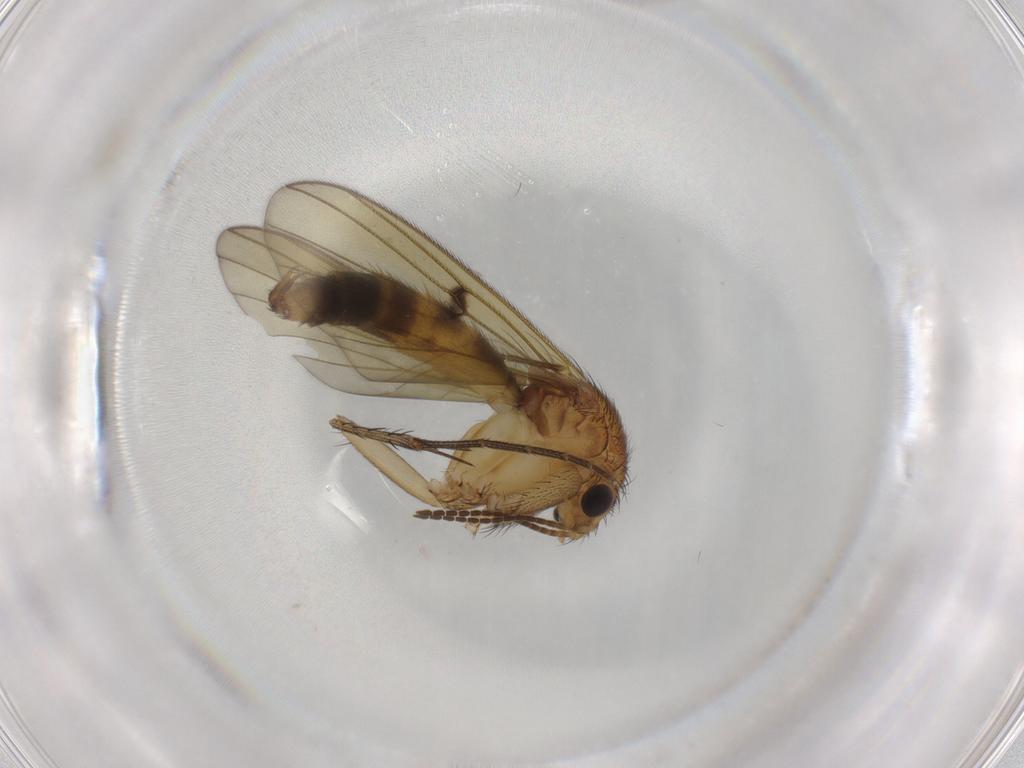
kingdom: Animalia
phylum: Arthropoda
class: Insecta
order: Diptera
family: Sphaeroceridae
